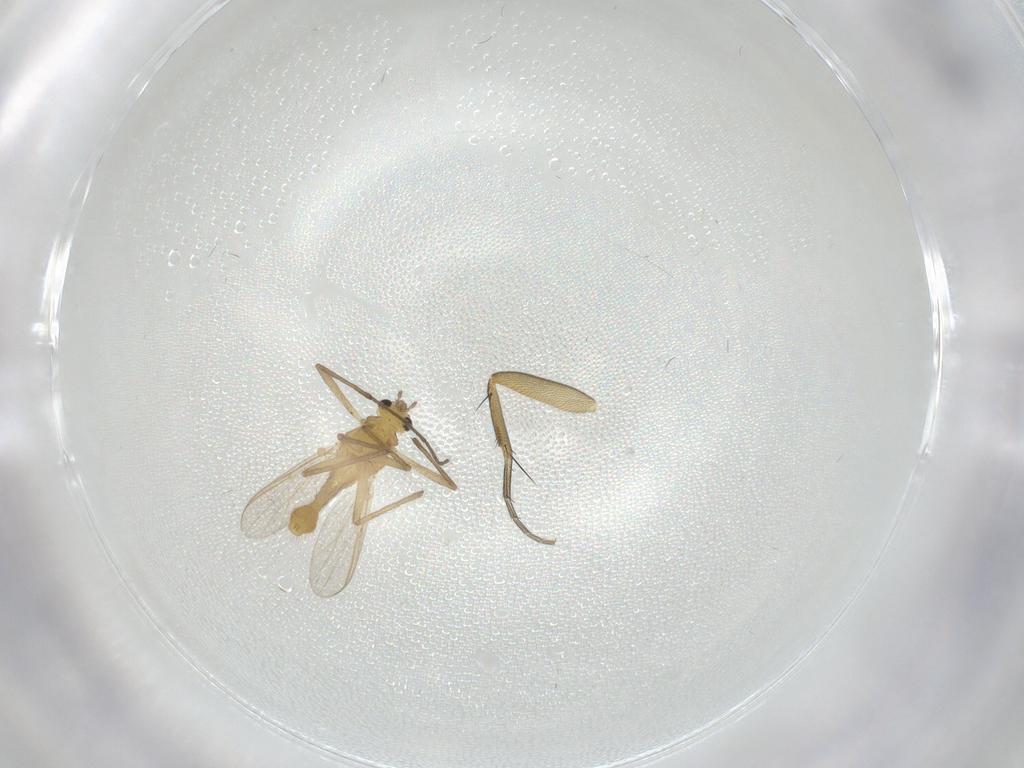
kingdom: Animalia
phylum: Arthropoda
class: Insecta
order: Diptera
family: Chironomidae
